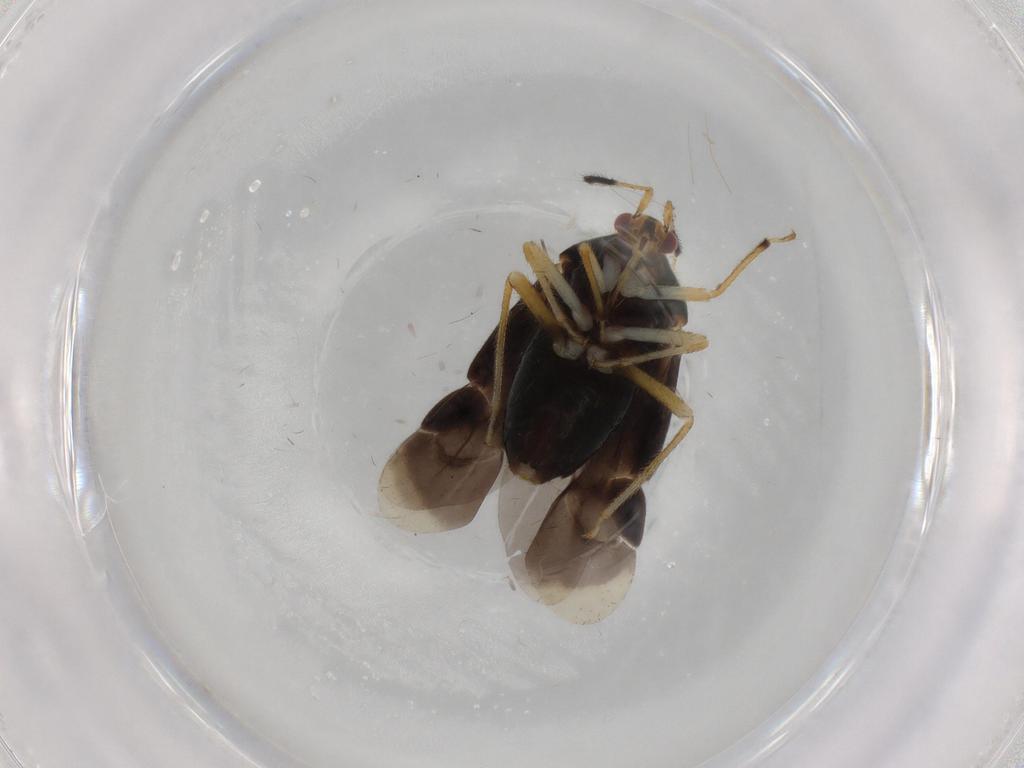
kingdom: Animalia
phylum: Arthropoda
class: Insecta
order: Hemiptera
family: Miridae
